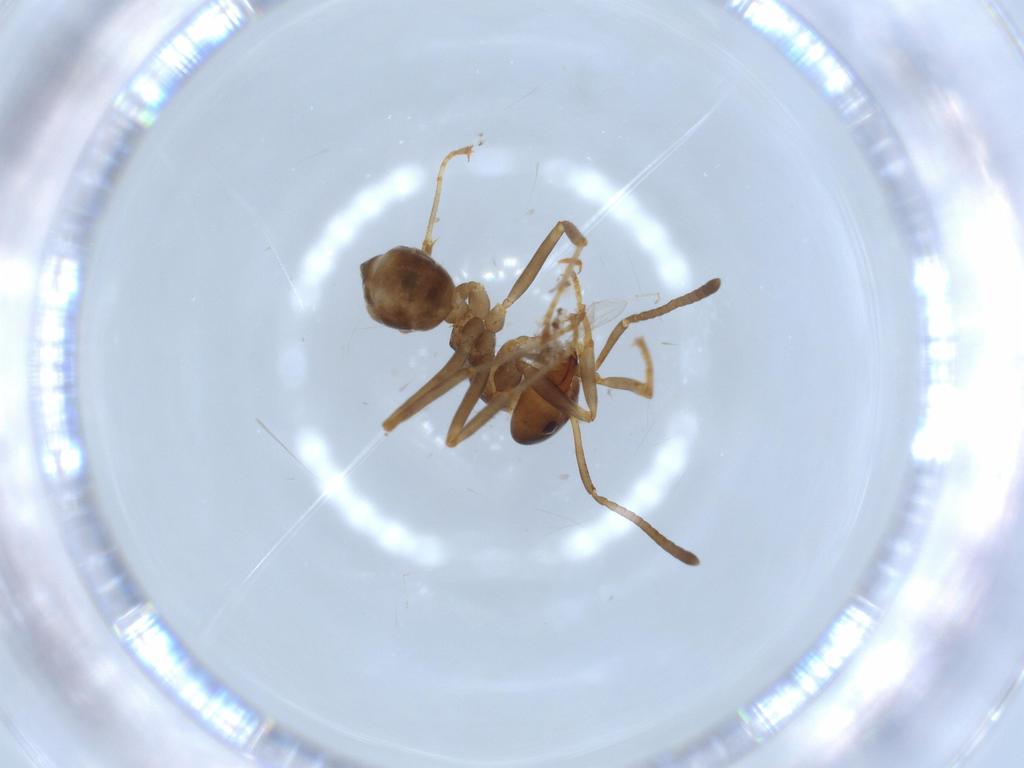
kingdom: Animalia
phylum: Arthropoda
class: Insecta
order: Hymenoptera
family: Formicidae
